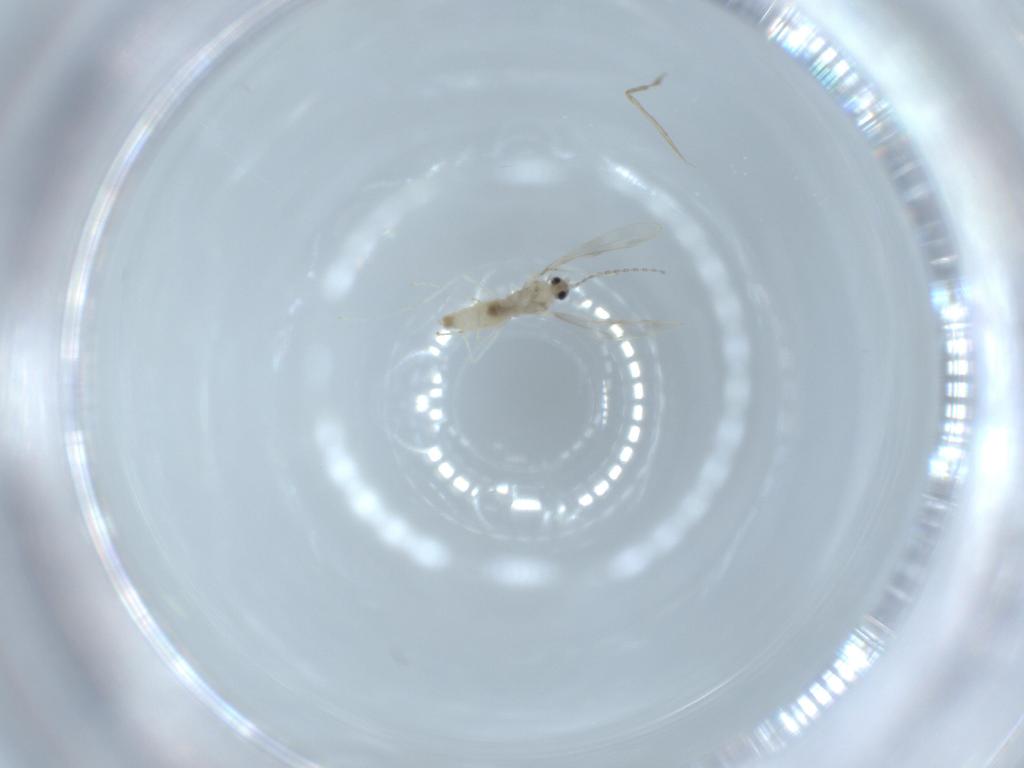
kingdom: Animalia
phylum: Arthropoda
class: Insecta
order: Diptera
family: Cecidomyiidae
